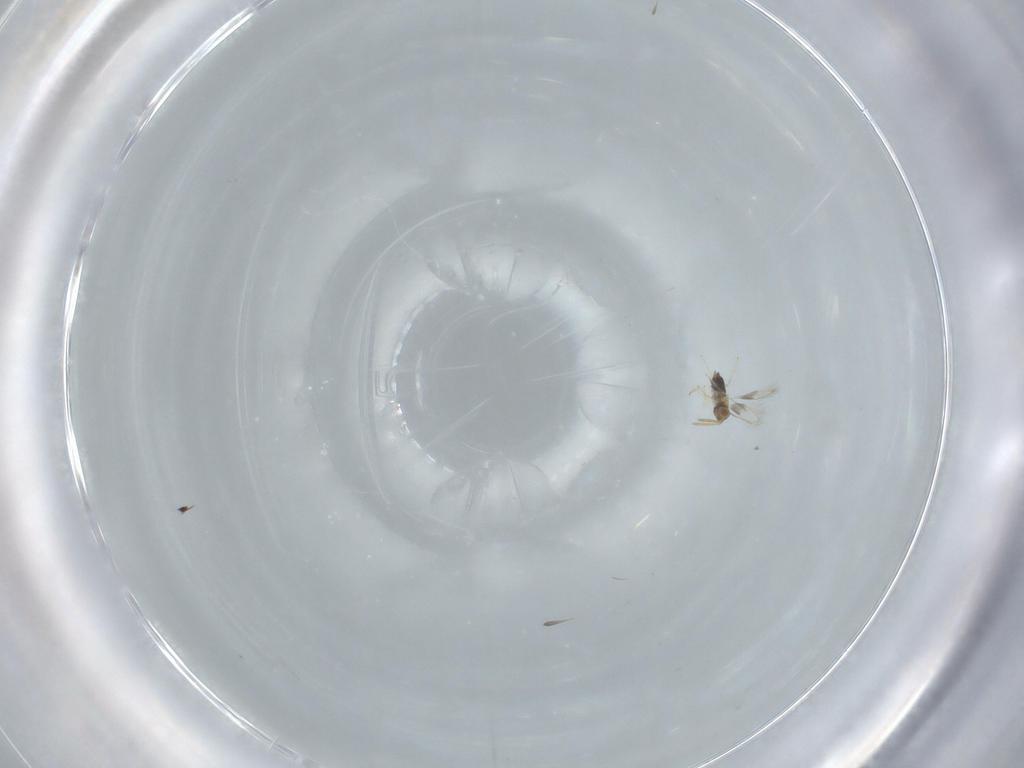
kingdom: Animalia
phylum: Arthropoda
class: Insecta
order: Hymenoptera
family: Aphelinidae
